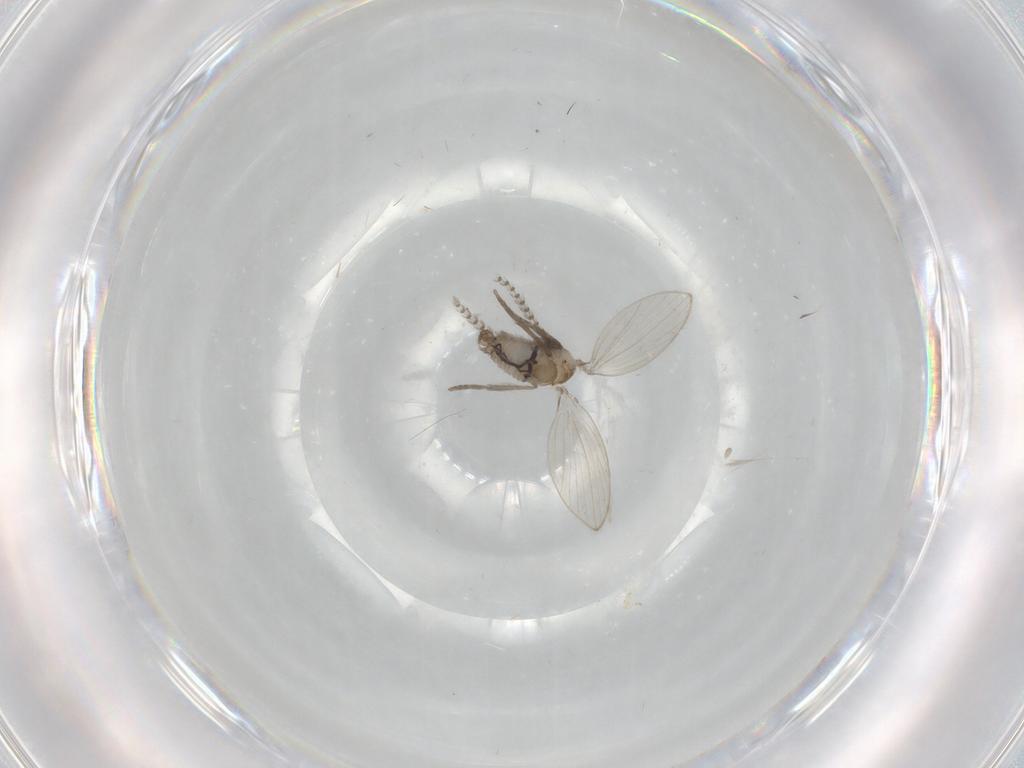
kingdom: Animalia
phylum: Arthropoda
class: Insecta
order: Diptera
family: Psychodidae
